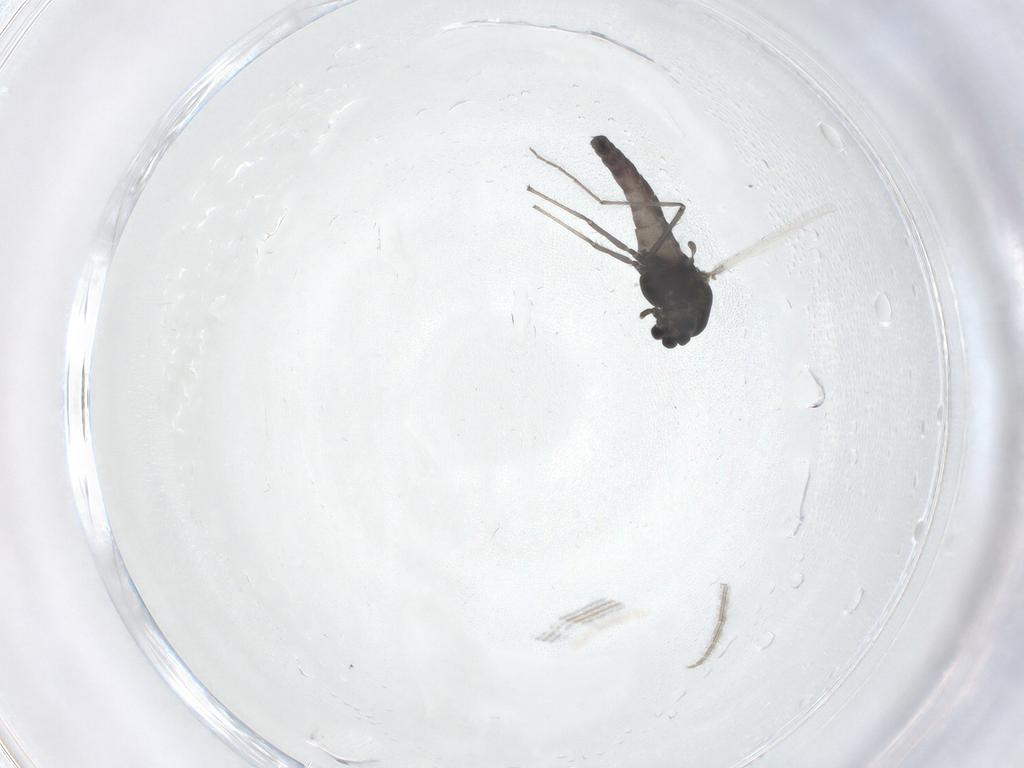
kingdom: Animalia
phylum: Arthropoda
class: Insecta
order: Diptera
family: Chironomidae
